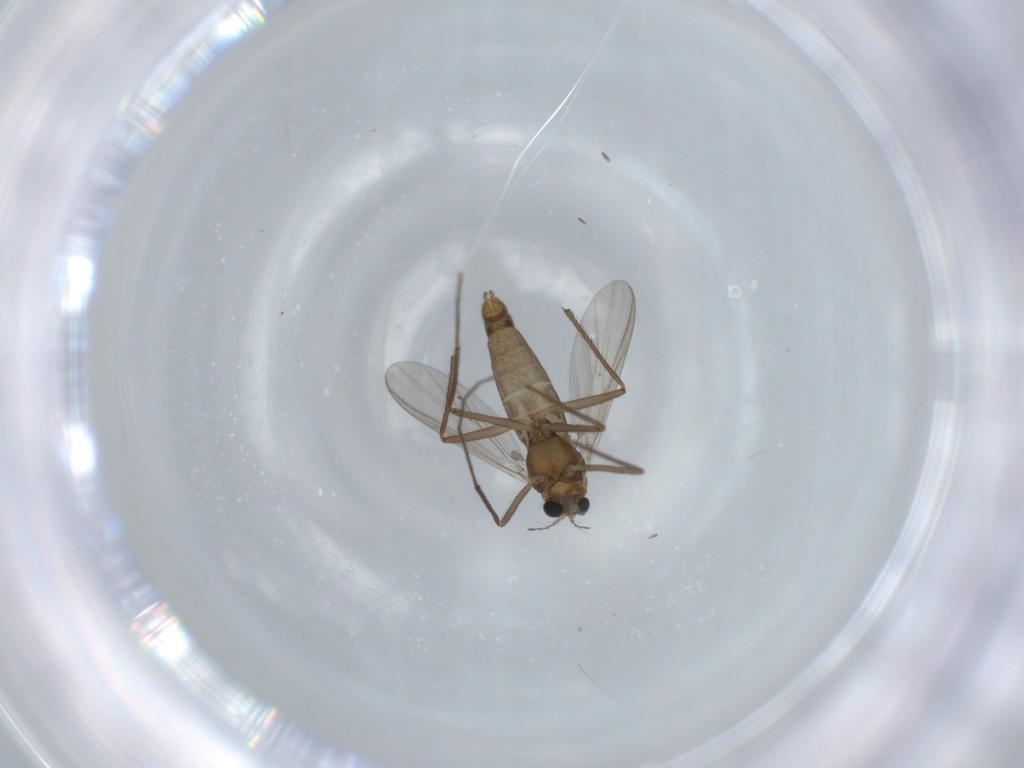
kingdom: Animalia
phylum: Arthropoda
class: Insecta
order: Diptera
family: Chironomidae
